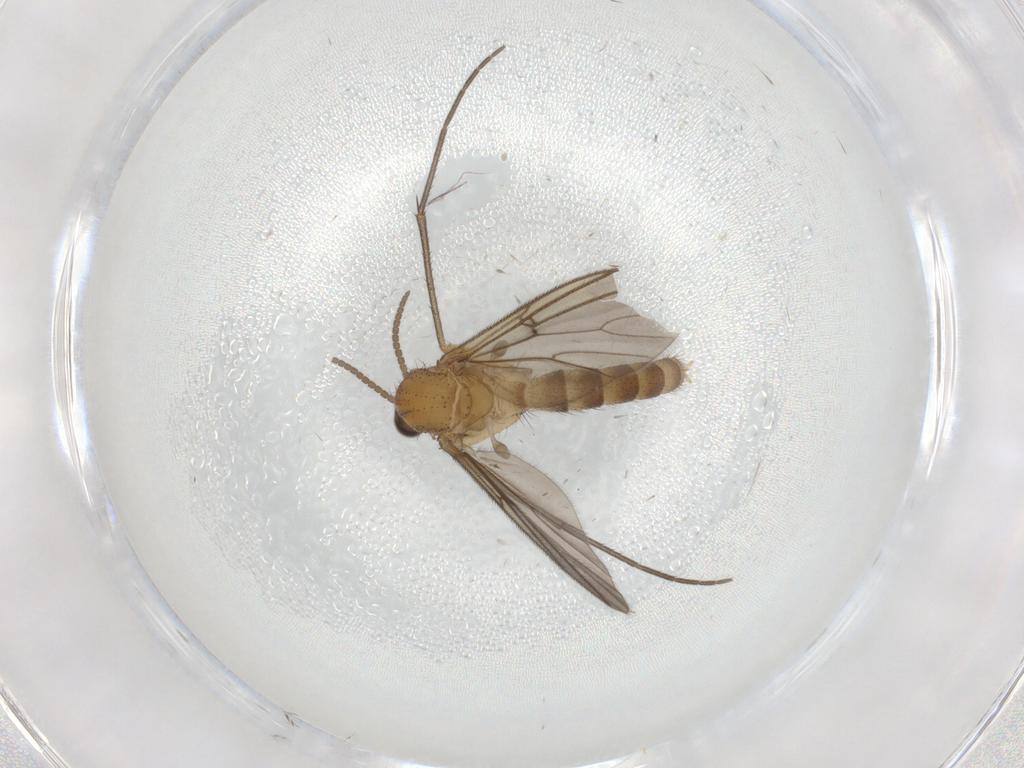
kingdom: Animalia
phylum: Arthropoda
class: Insecta
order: Diptera
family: Mycetophilidae
